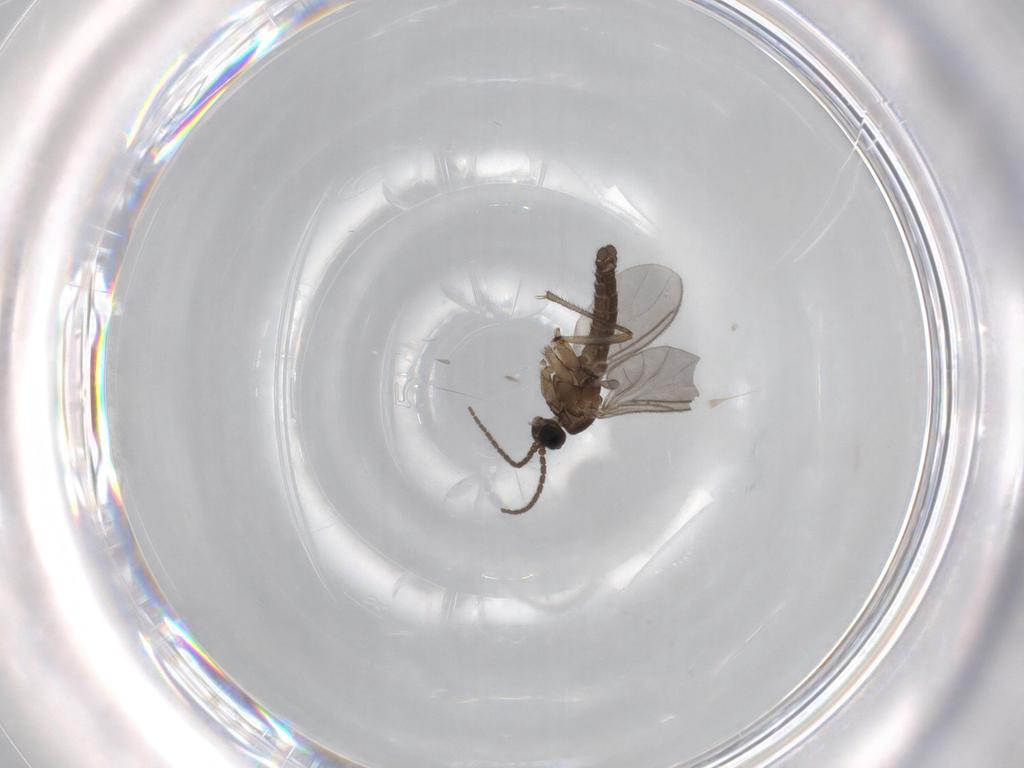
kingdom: Animalia
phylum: Arthropoda
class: Insecta
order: Diptera
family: Sciaridae
